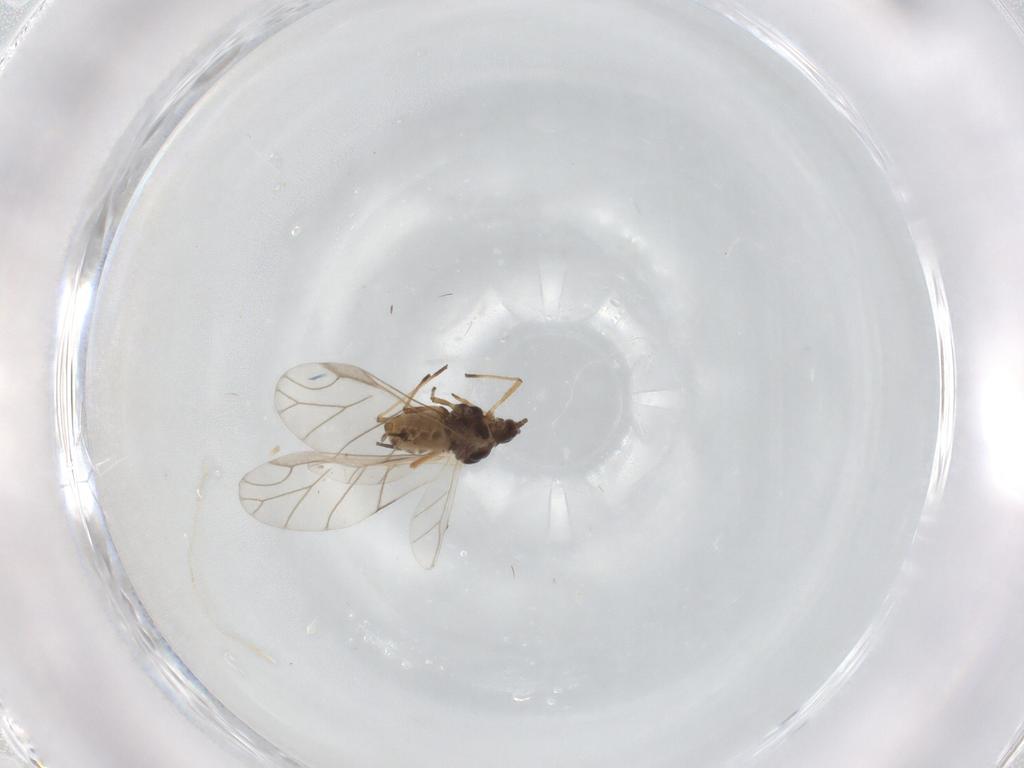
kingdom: Animalia
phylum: Arthropoda
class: Insecta
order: Hemiptera
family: Aphididae
